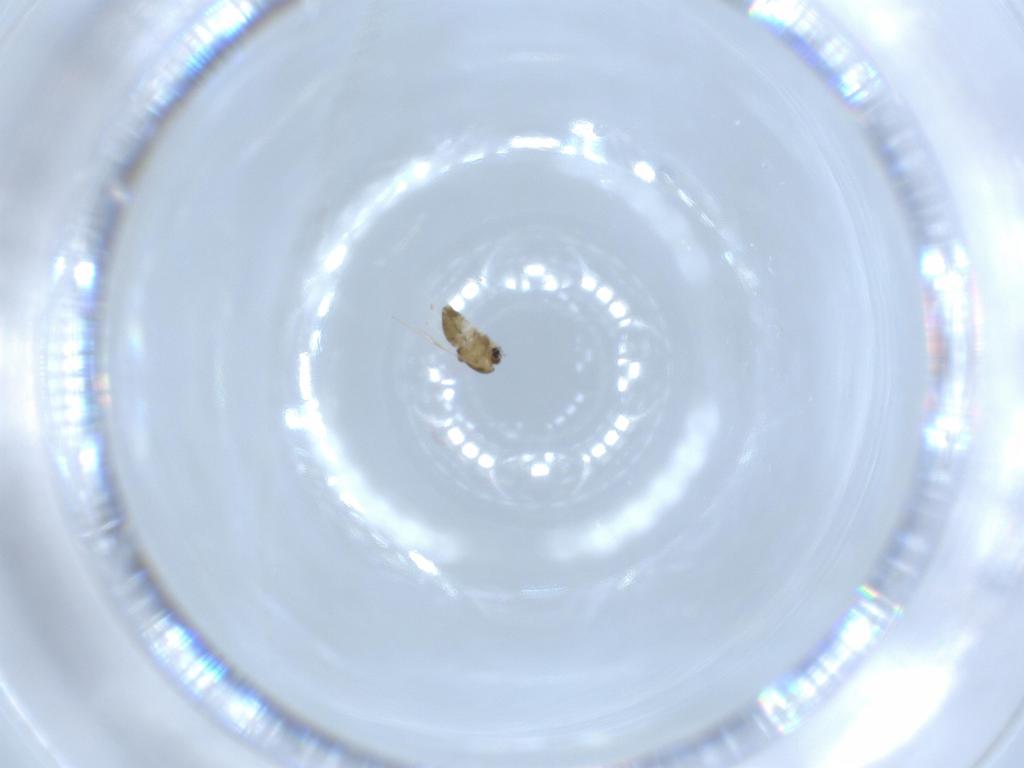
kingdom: Animalia
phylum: Arthropoda
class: Insecta
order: Diptera
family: Chironomidae
